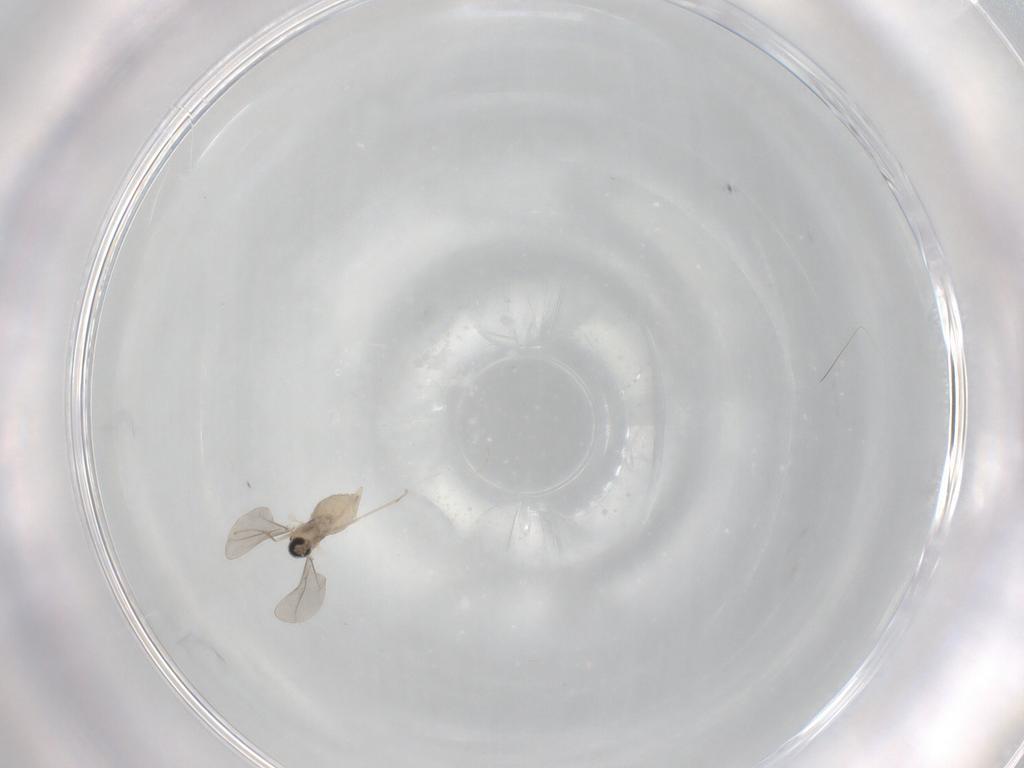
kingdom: Animalia
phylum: Arthropoda
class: Insecta
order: Diptera
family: Cecidomyiidae
